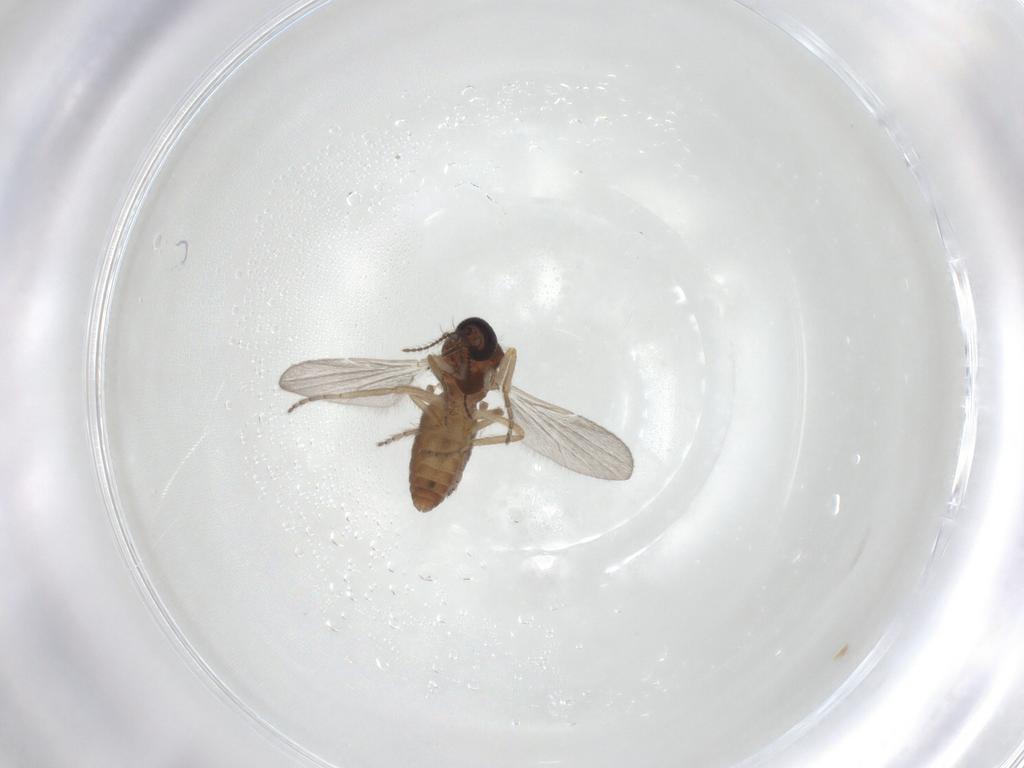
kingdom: Animalia
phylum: Arthropoda
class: Insecta
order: Diptera
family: Ceratopogonidae
